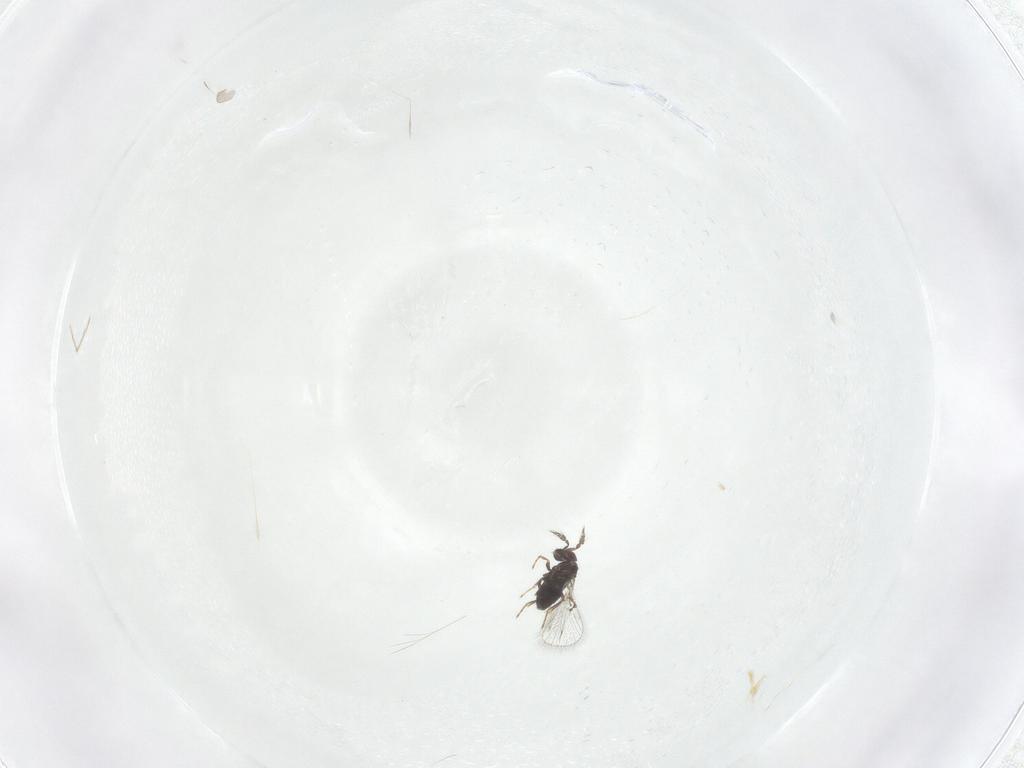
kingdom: Animalia
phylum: Arthropoda
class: Insecta
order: Hymenoptera
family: Trichogrammatidae
